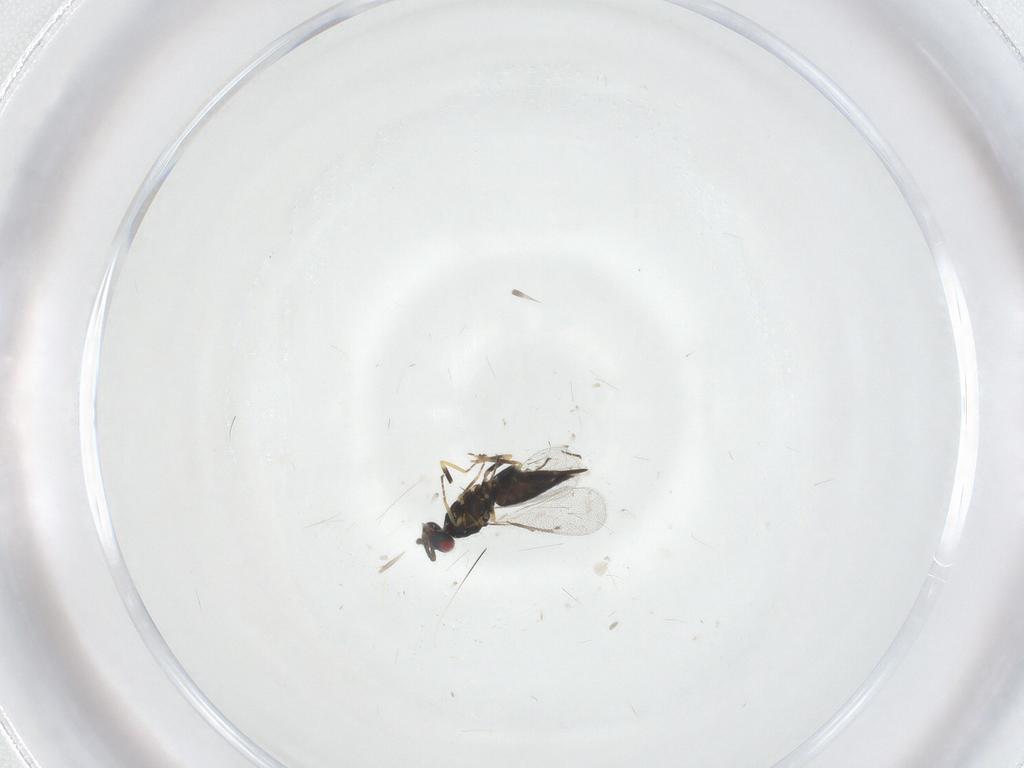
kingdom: Animalia
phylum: Arthropoda
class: Insecta
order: Hymenoptera
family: Eulophidae
